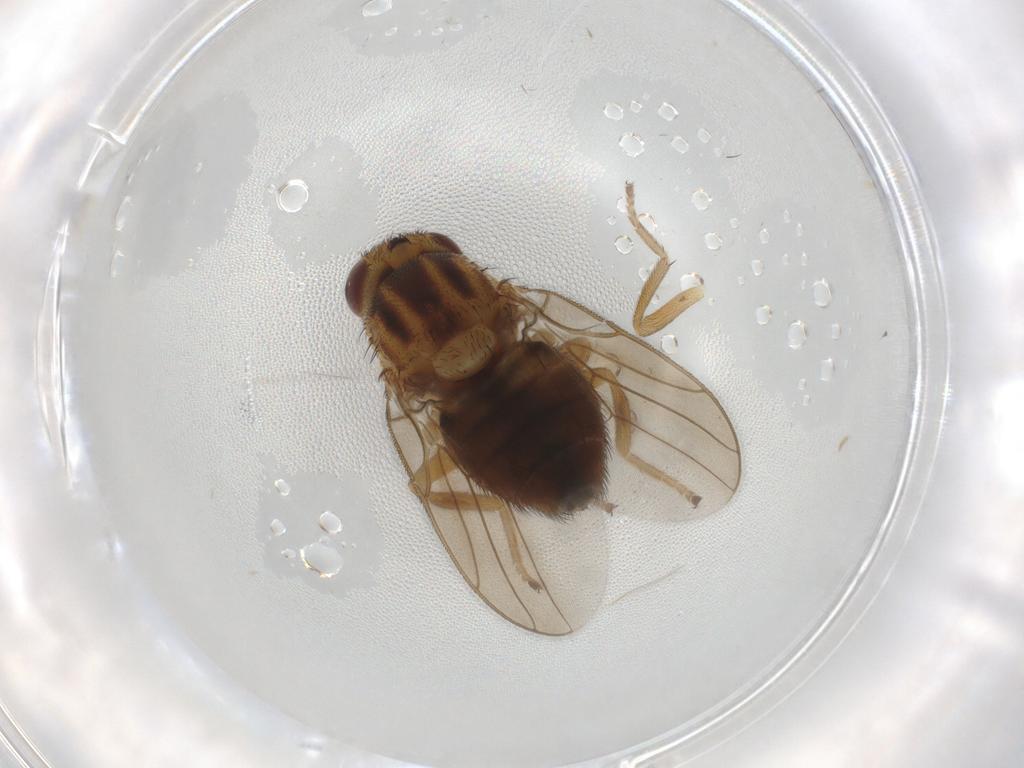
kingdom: Animalia
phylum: Arthropoda
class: Insecta
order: Diptera
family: Chloropidae
